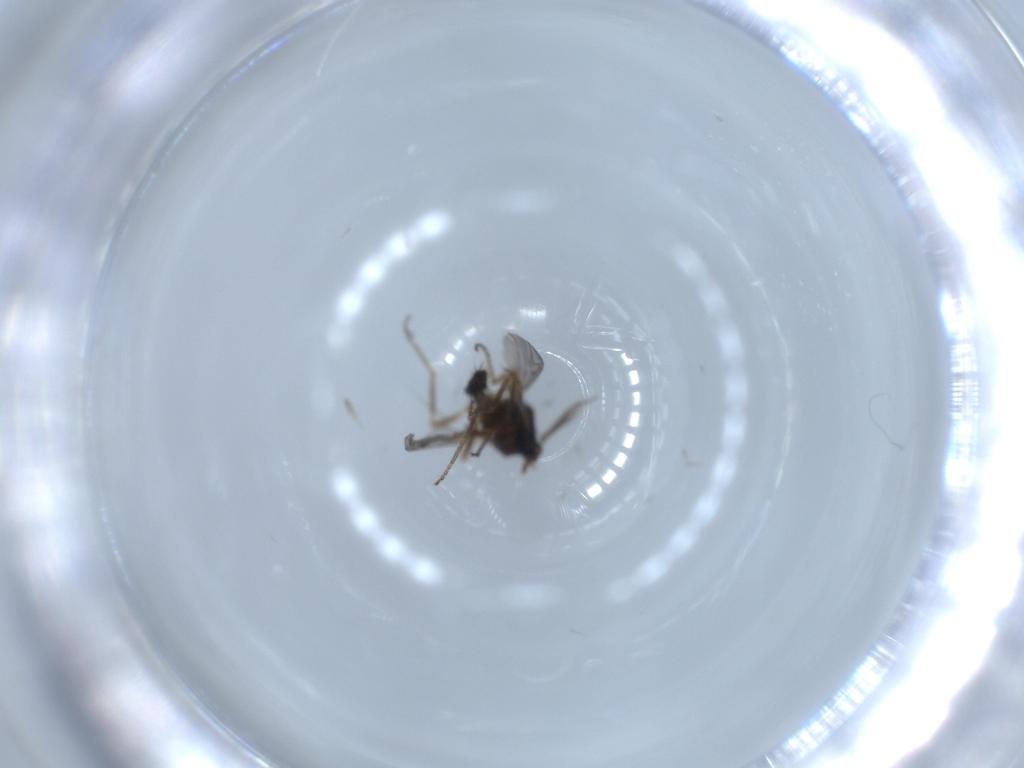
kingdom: Animalia
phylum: Arthropoda
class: Insecta
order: Diptera
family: Ceratopogonidae
